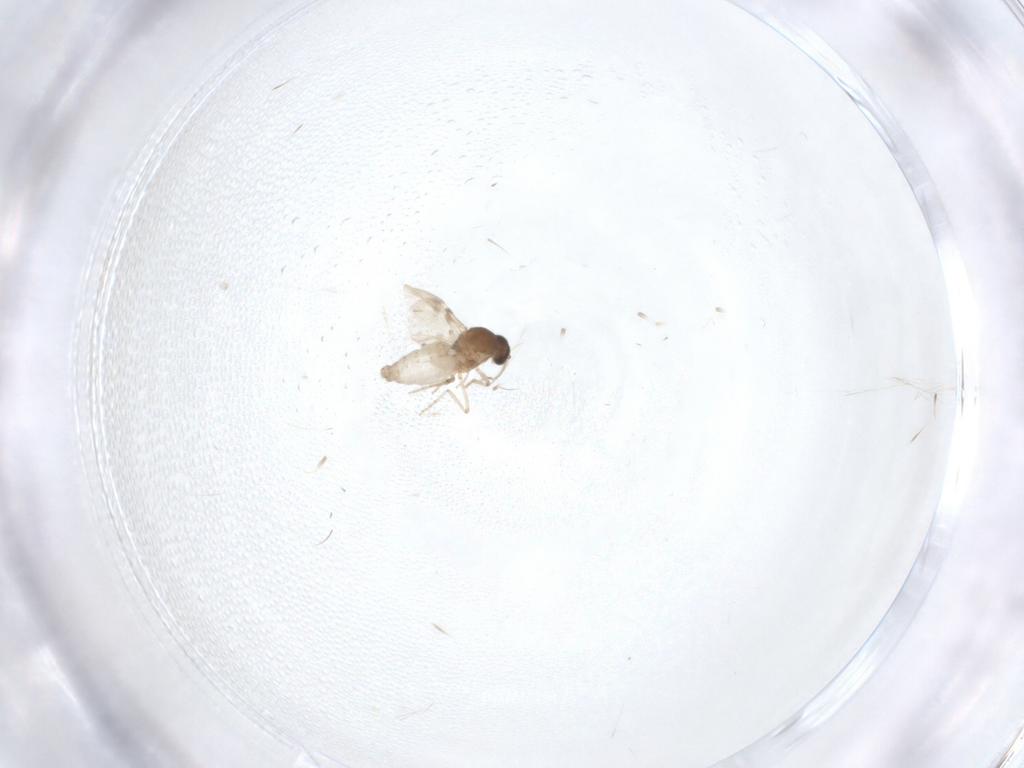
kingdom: Animalia
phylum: Arthropoda
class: Insecta
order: Diptera
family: Ceratopogonidae
